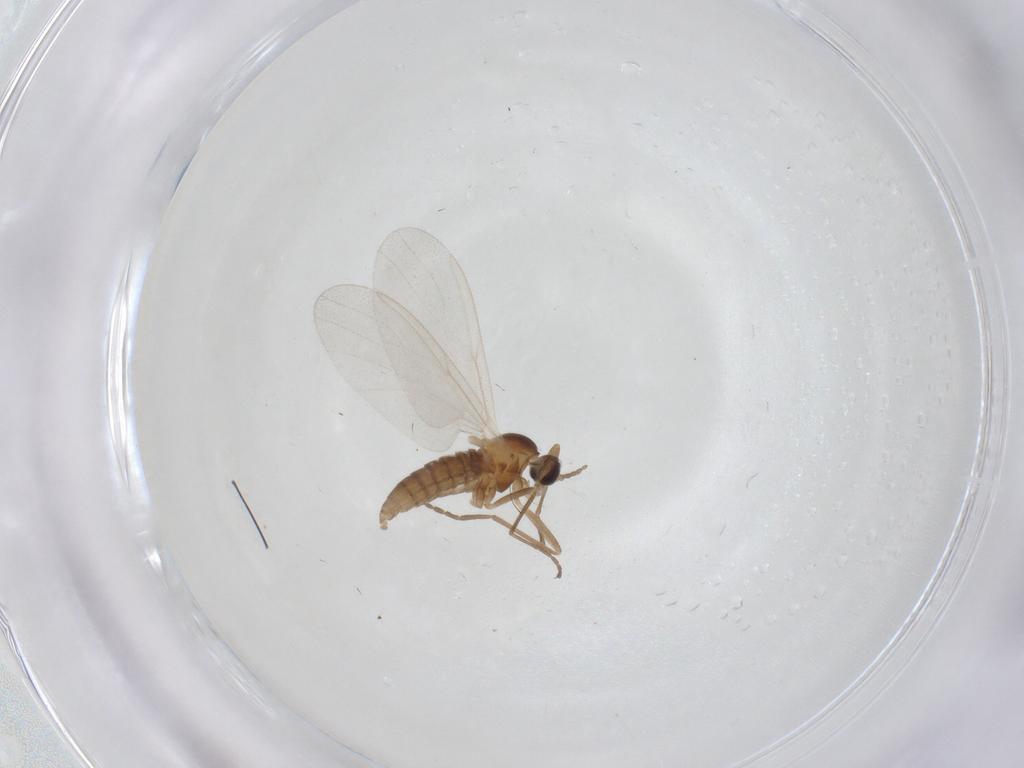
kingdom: Animalia
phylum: Arthropoda
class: Insecta
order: Diptera
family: Cecidomyiidae
